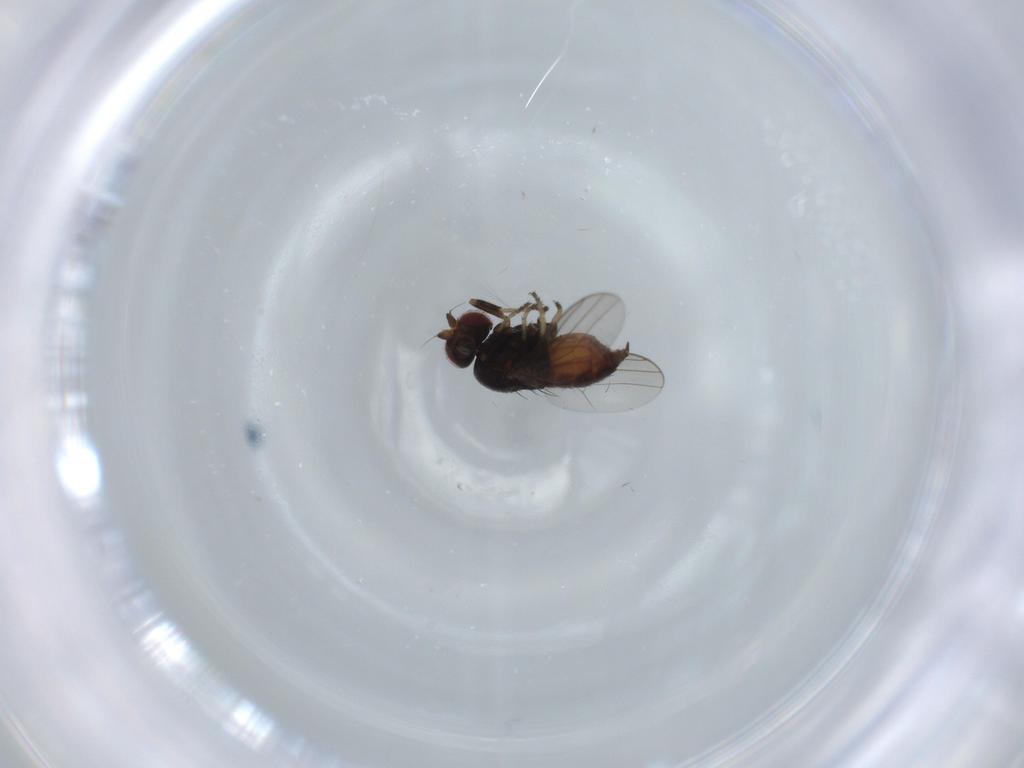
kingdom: Animalia
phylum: Arthropoda
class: Insecta
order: Diptera
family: Chloropidae
